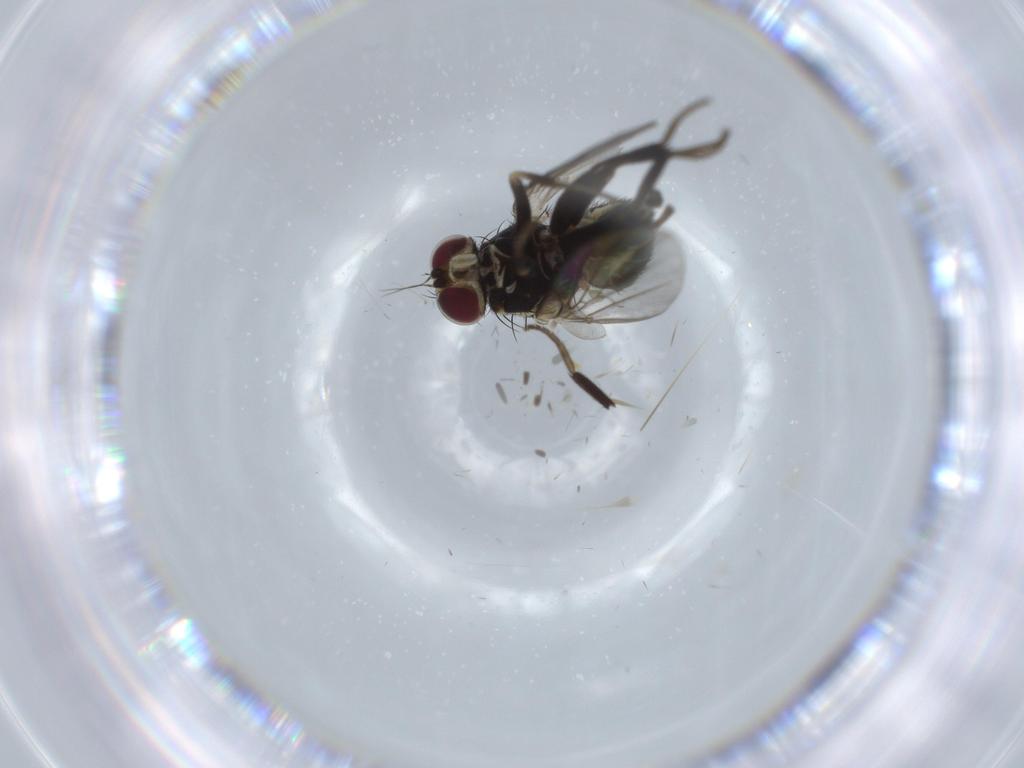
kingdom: Animalia
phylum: Arthropoda
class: Insecta
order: Diptera
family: Agromyzidae
